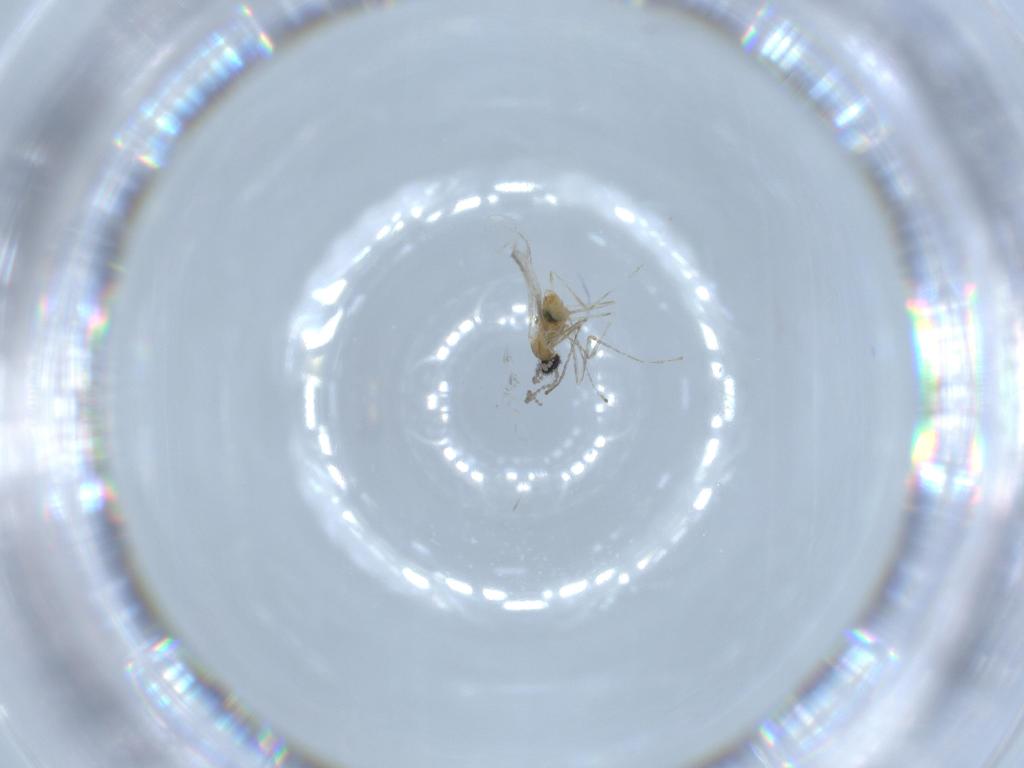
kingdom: Animalia
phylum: Arthropoda
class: Insecta
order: Diptera
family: Cecidomyiidae
